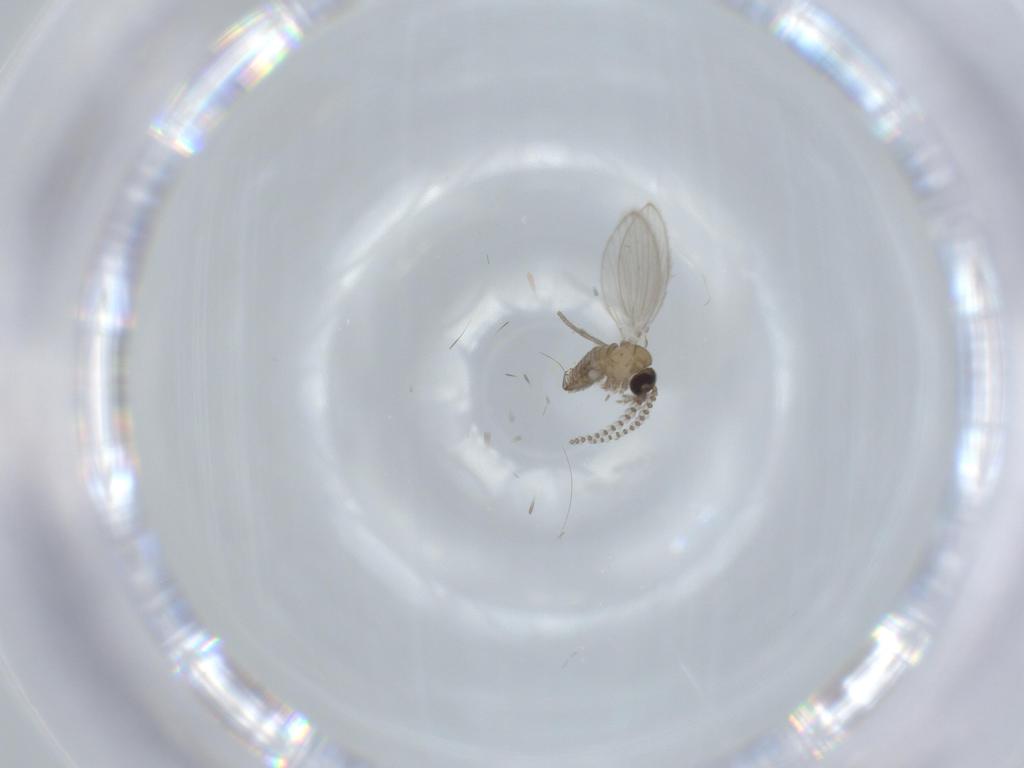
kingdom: Animalia
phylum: Arthropoda
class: Insecta
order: Diptera
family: Psychodidae
